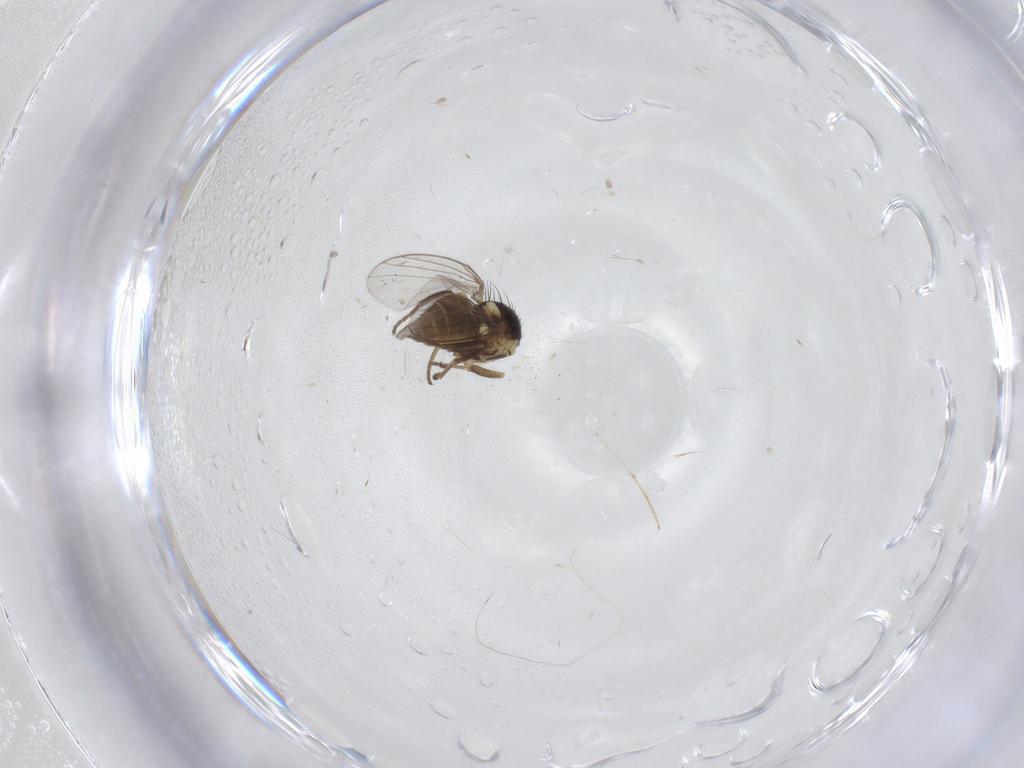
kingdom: Animalia
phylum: Arthropoda
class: Insecta
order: Diptera
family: Agromyzidae
